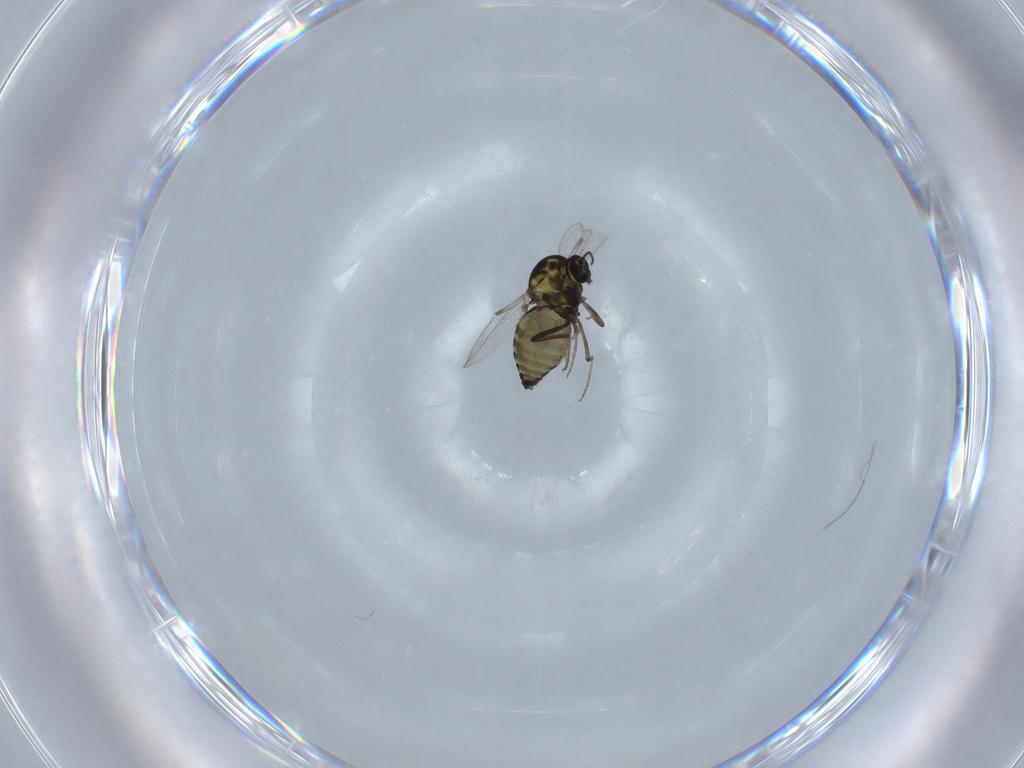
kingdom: Animalia
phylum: Arthropoda
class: Insecta
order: Diptera
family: Ceratopogonidae
